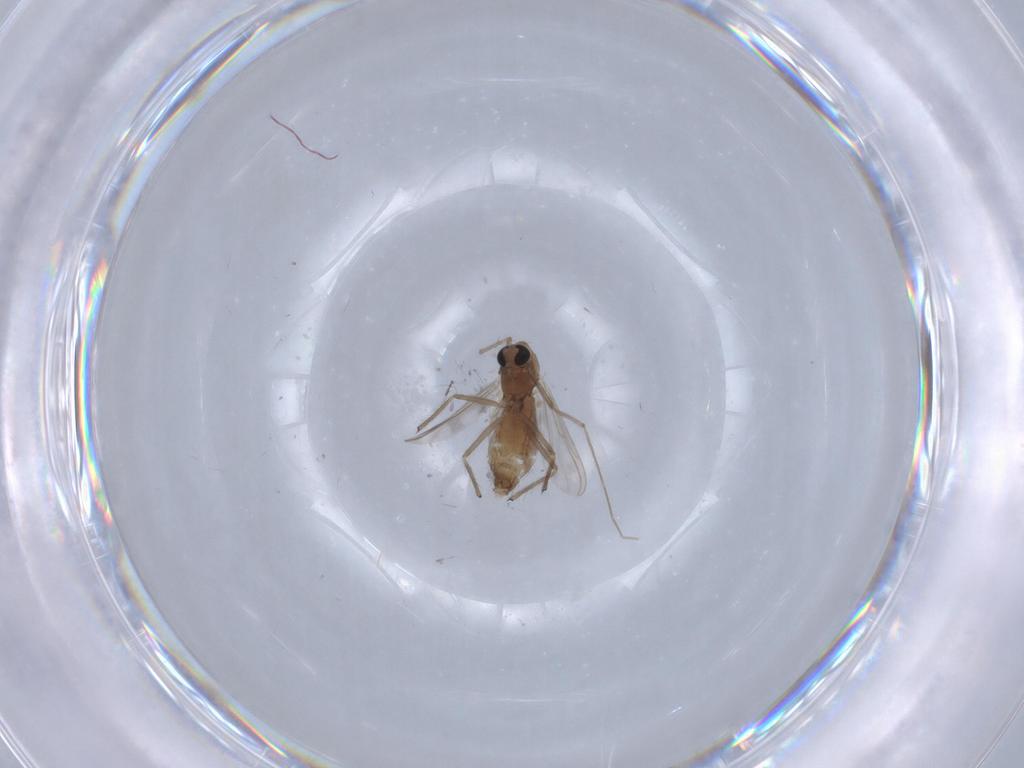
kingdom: Animalia
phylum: Arthropoda
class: Insecta
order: Diptera
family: Chironomidae
